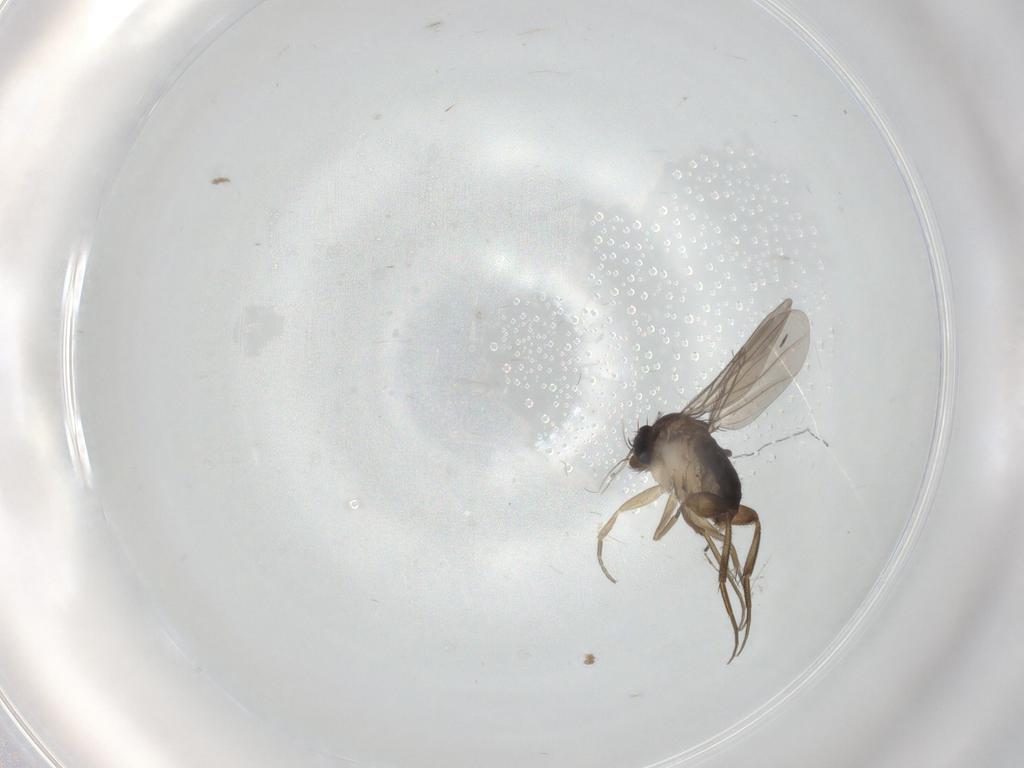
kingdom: Animalia
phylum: Arthropoda
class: Insecta
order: Diptera
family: Phoridae
